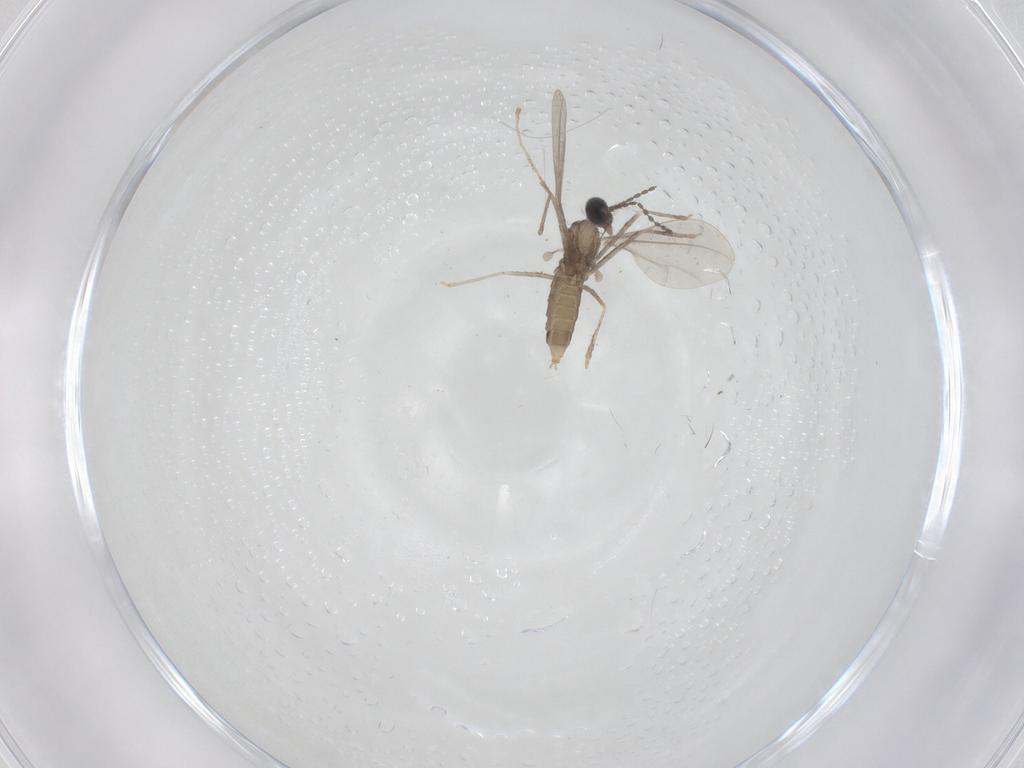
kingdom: Animalia
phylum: Arthropoda
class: Insecta
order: Diptera
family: Cecidomyiidae
